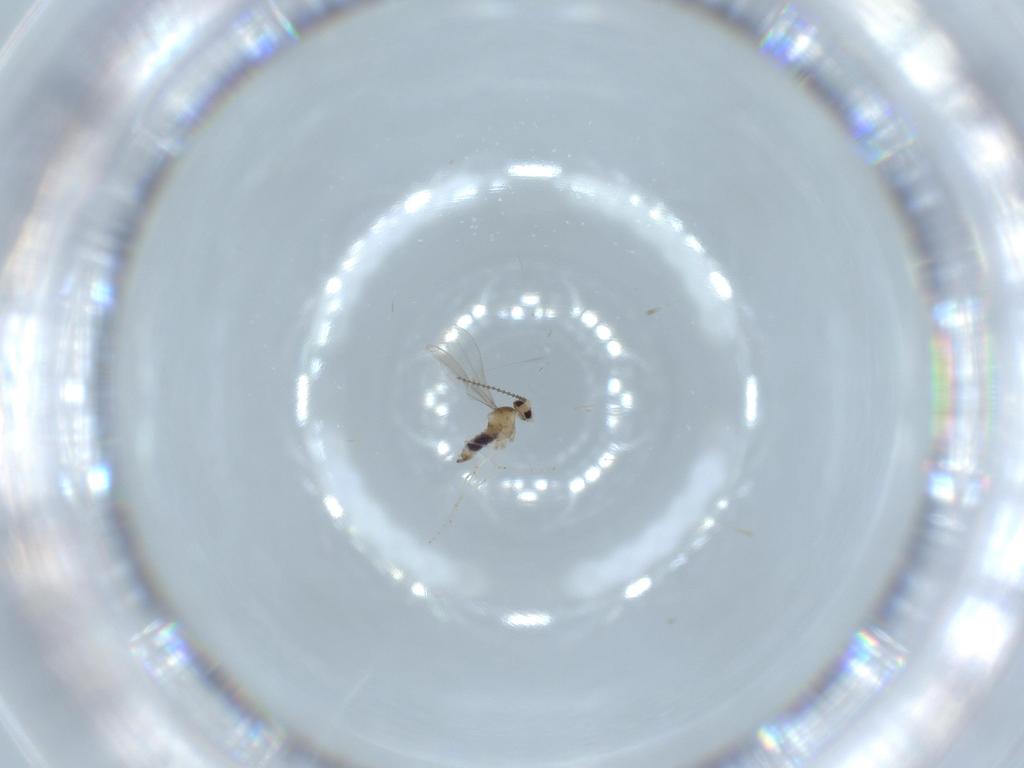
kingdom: Animalia
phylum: Arthropoda
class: Insecta
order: Diptera
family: Cecidomyiidae
